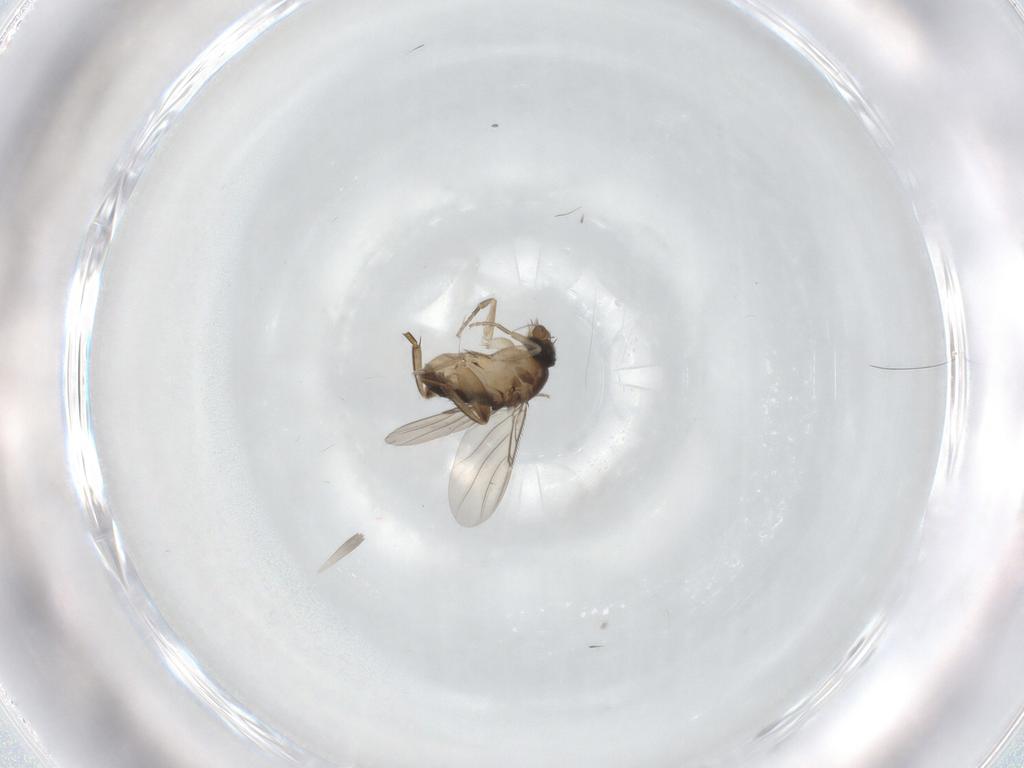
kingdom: Animalia
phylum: Arthropoda
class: Insecta
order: Diptera
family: Phoridae
